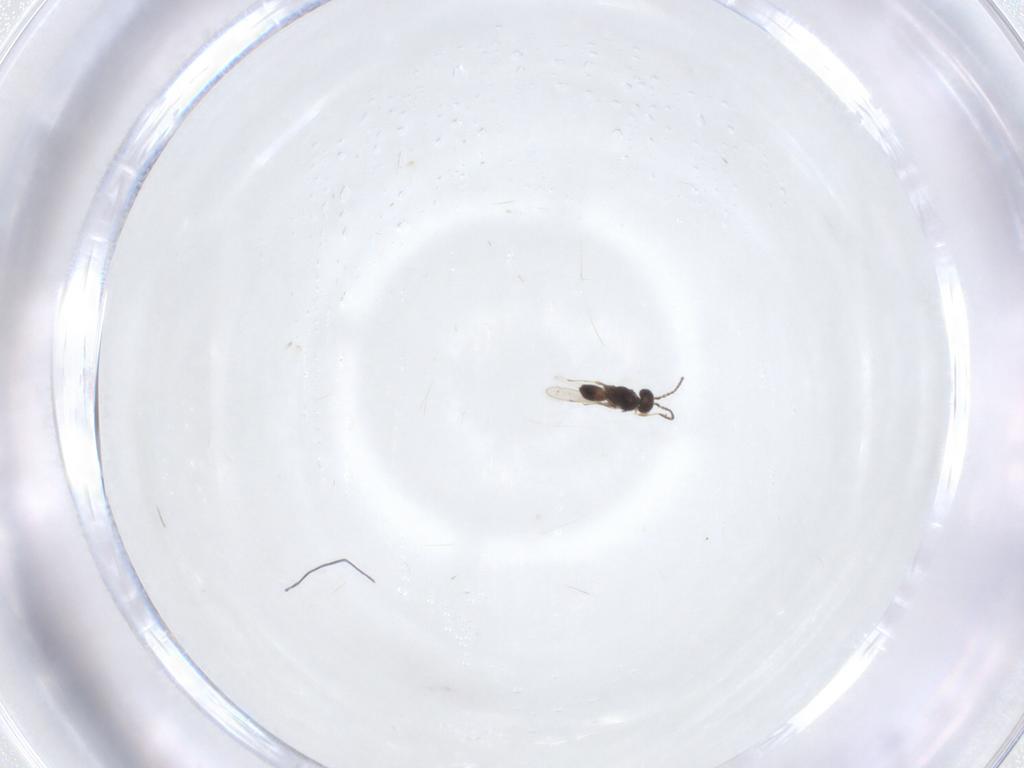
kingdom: Animalia
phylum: Arthropoda
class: Insecta
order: Hymenoptera
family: Scelionidae
